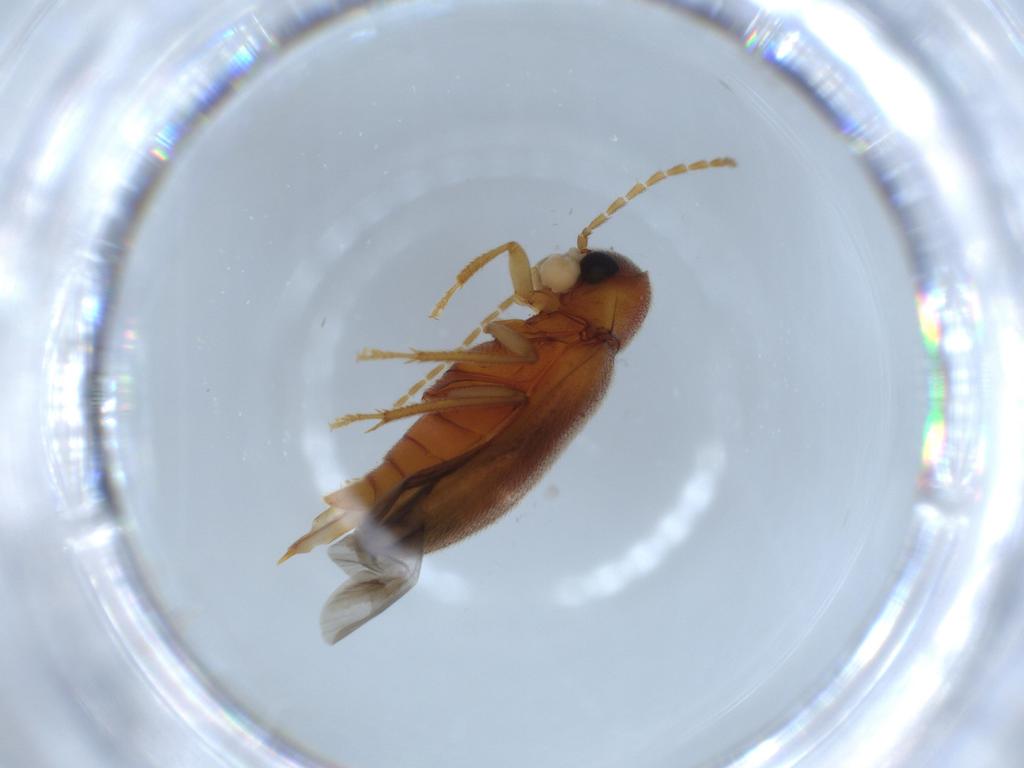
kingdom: Animalia
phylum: Arthropoda
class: Insecta
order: Coleoptera
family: Ptilodactylidae
